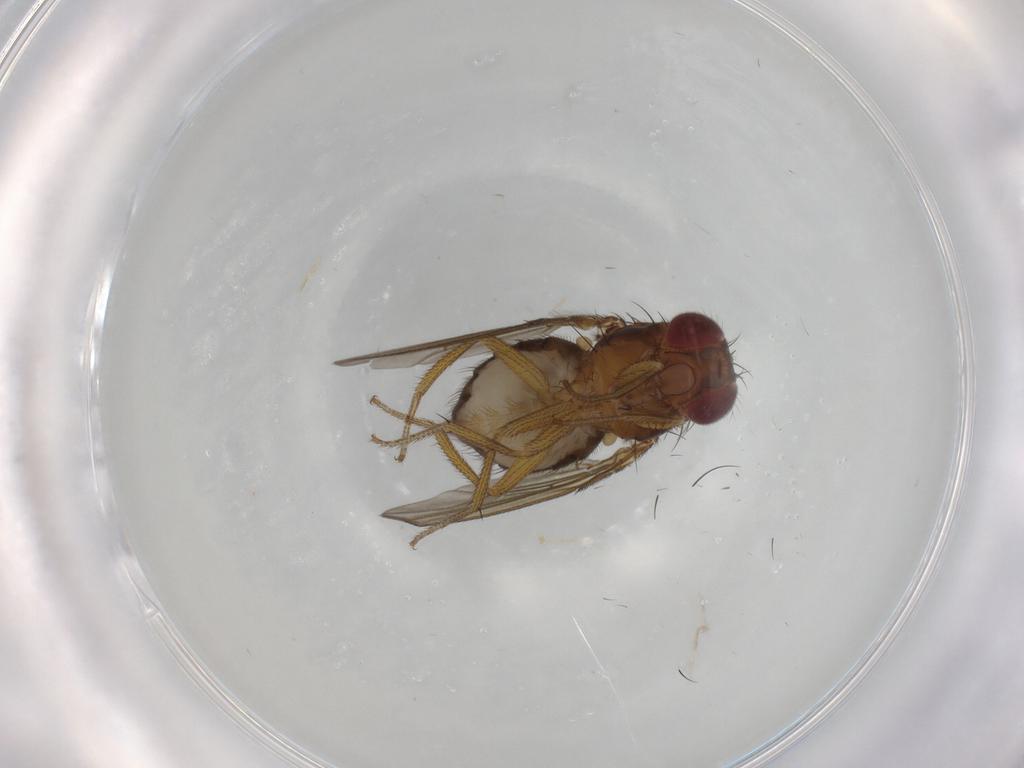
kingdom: Animalia
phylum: Arthropoda
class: Insecta
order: Diptera
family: Drosophilidae
